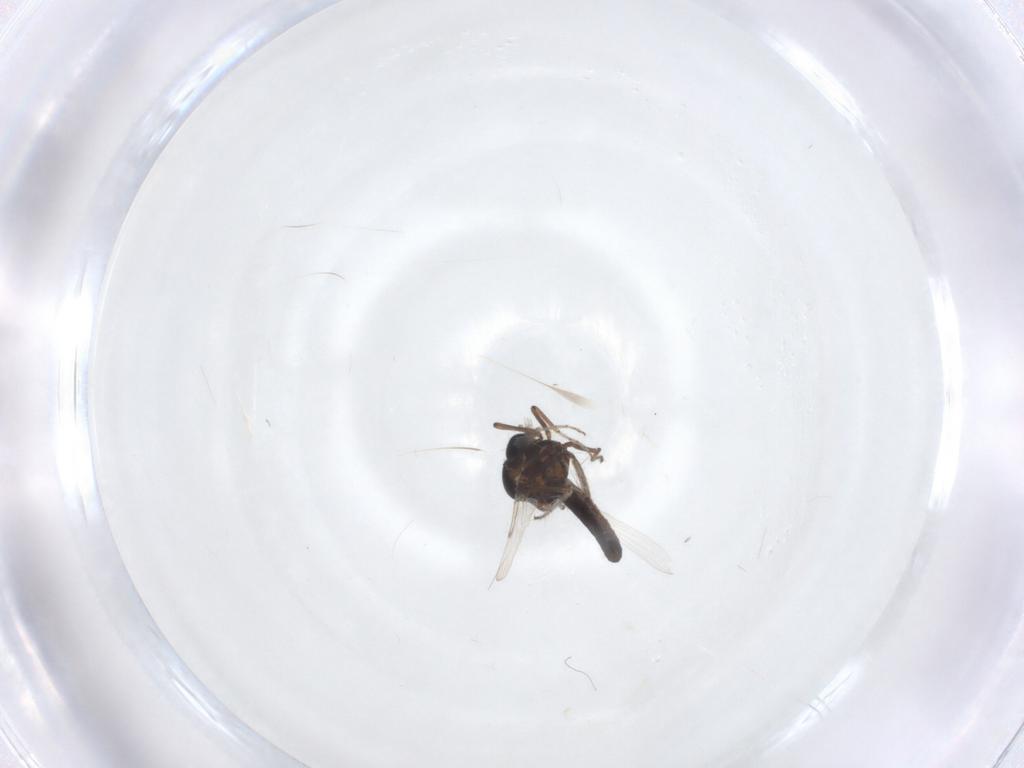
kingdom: Animalia
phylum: Arthropoda
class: Insecta
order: Diptera
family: Ceratopogonidae
